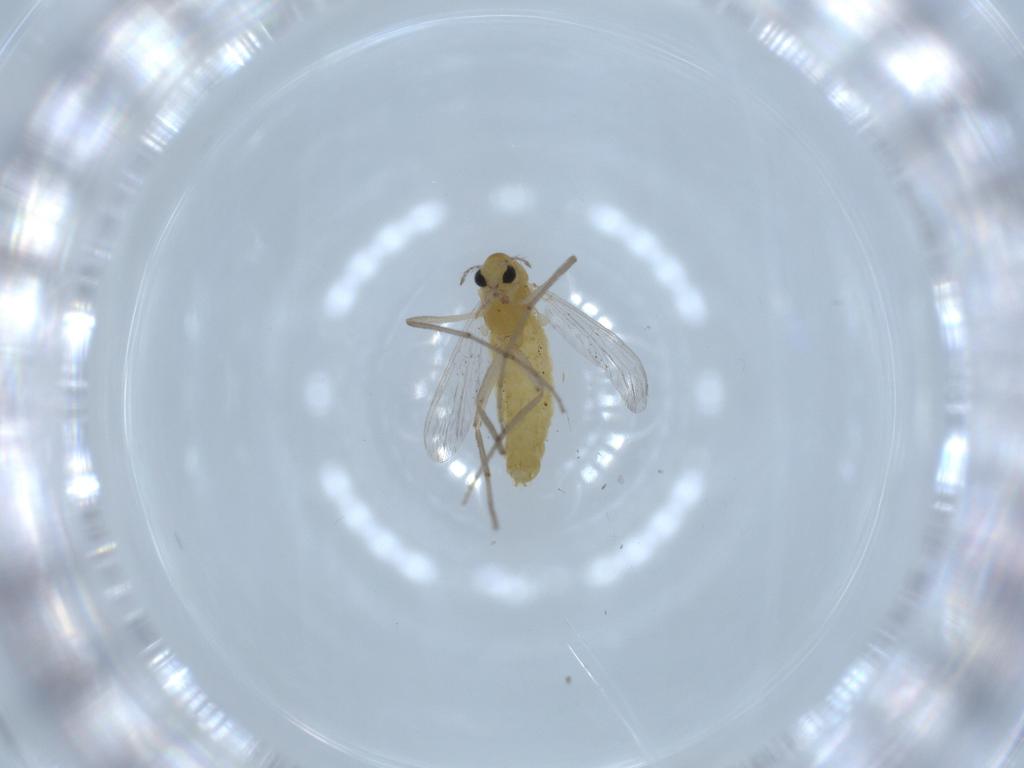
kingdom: Animalia
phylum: Arthropoda
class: Insecta
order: Diptera
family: Chironomidae
